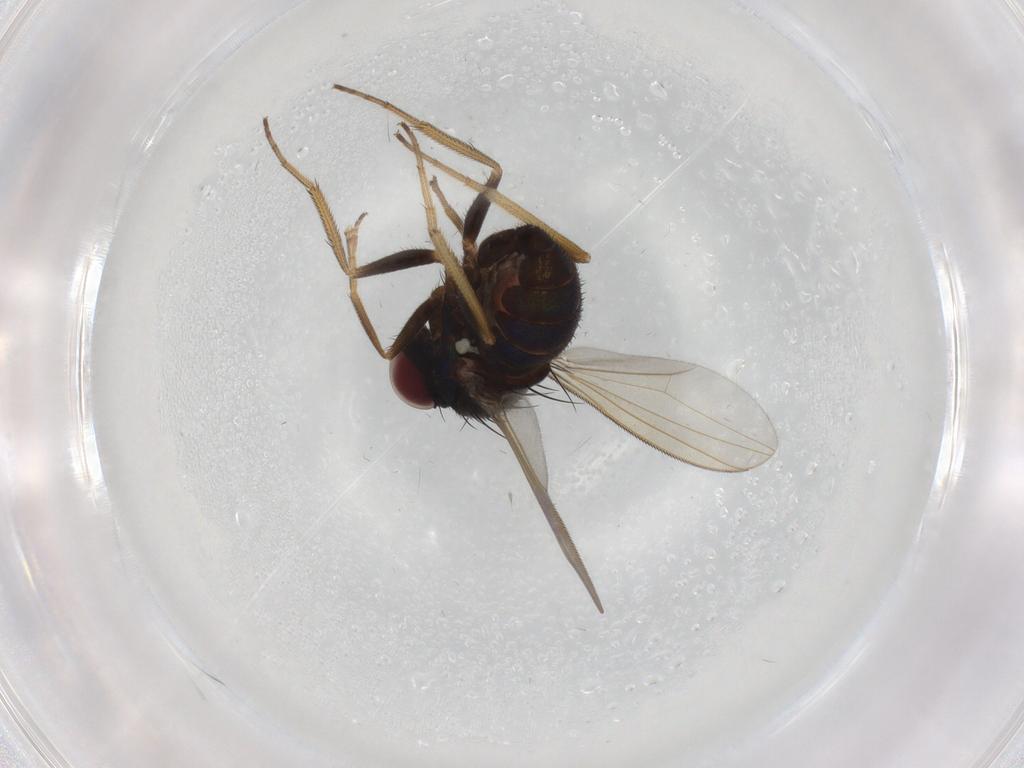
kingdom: Animalia
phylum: Arthropoda
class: Insecta
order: Diptera
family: Dolichopodidae
